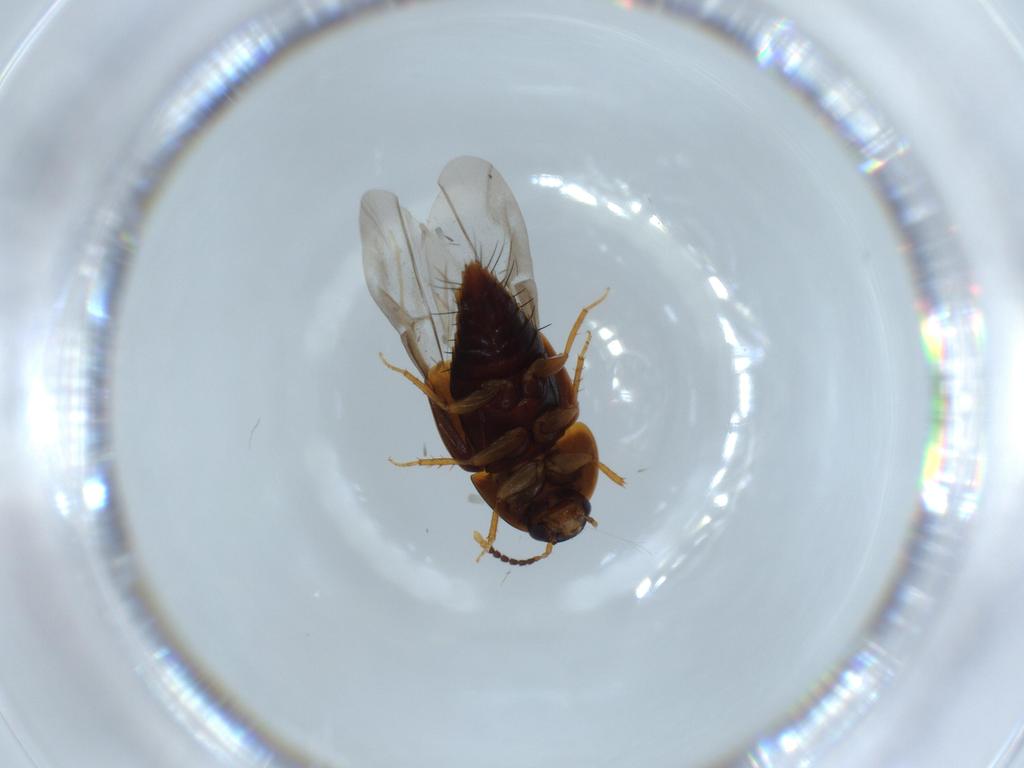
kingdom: Animalia
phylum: Arthropoda
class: Insecta
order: Coleoptera
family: Staphylinidae
